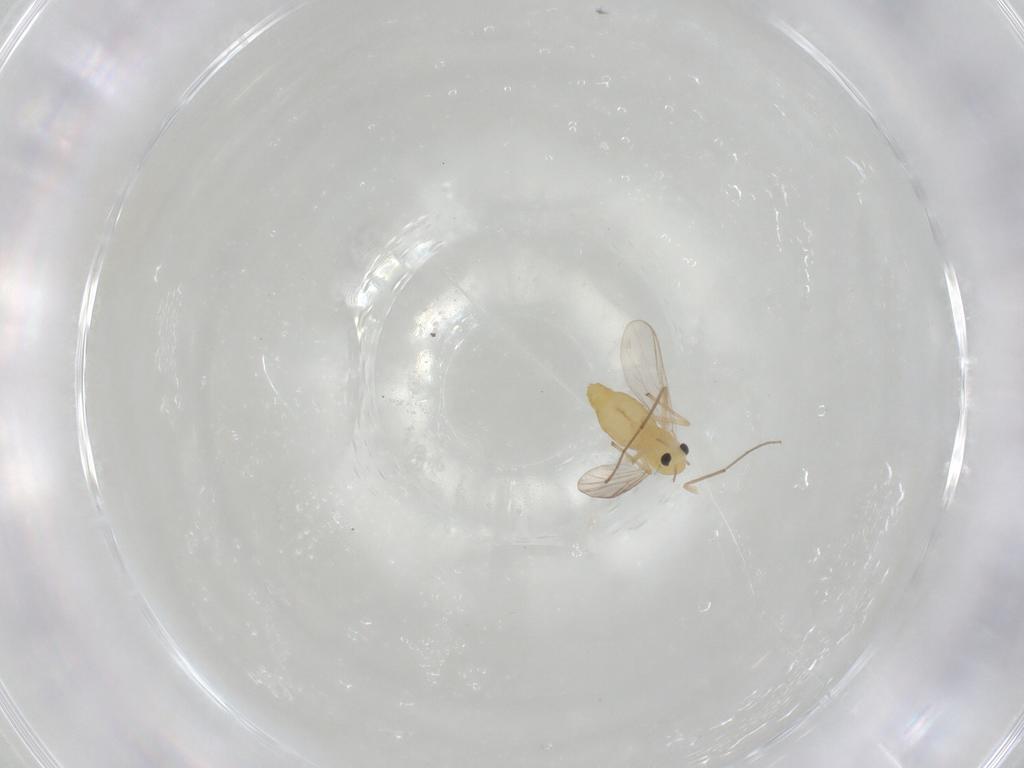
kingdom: Animalia
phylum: Arthropoda
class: Insecta
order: Diptera
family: Chironomidae
